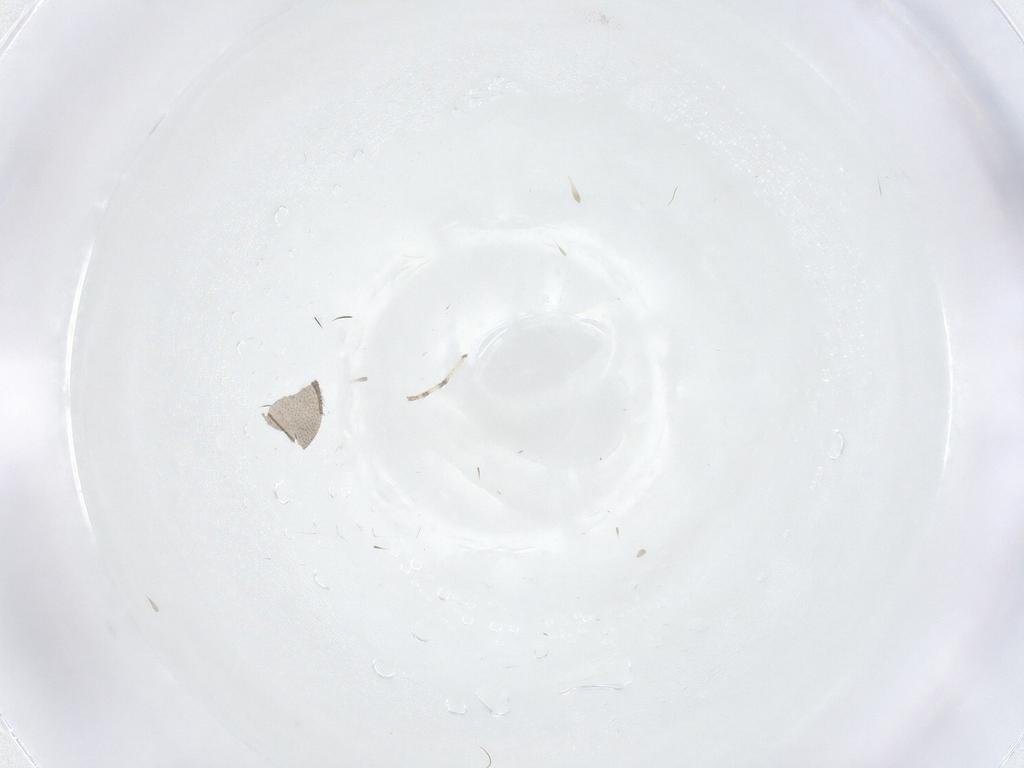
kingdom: Animalia
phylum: Arthropoda
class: Insecta
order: Diptera
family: Cecidomyiidae
